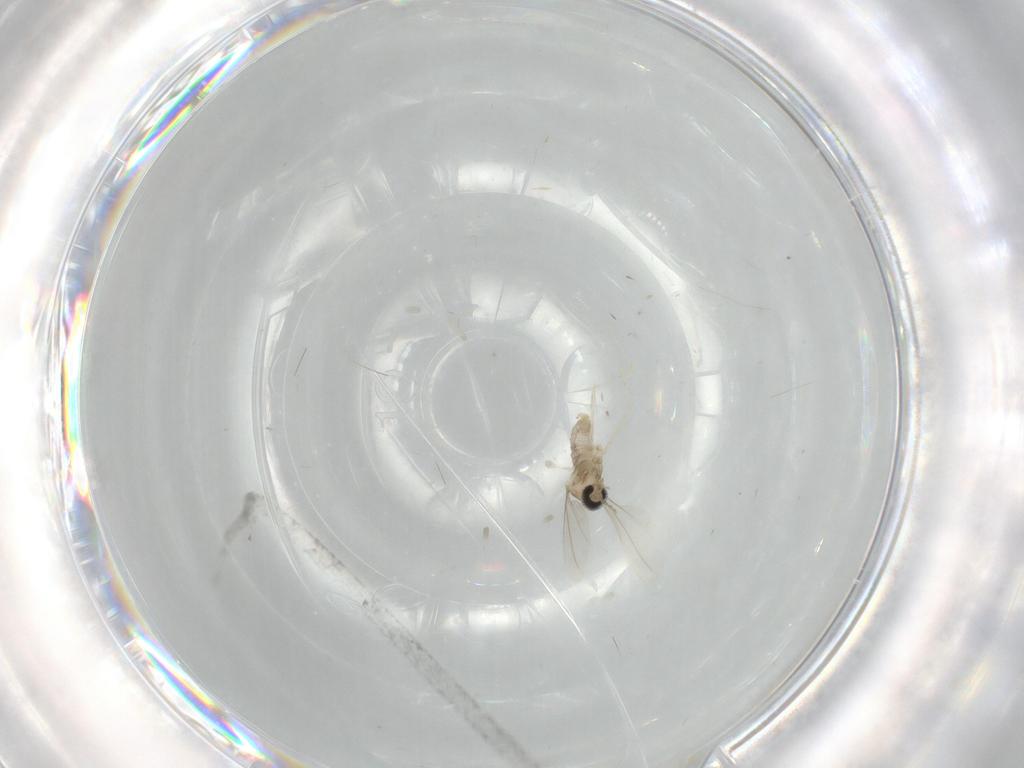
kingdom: Animalia
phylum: Arthropoda
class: Insecta
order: Diptera
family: Cecidomyiidae
